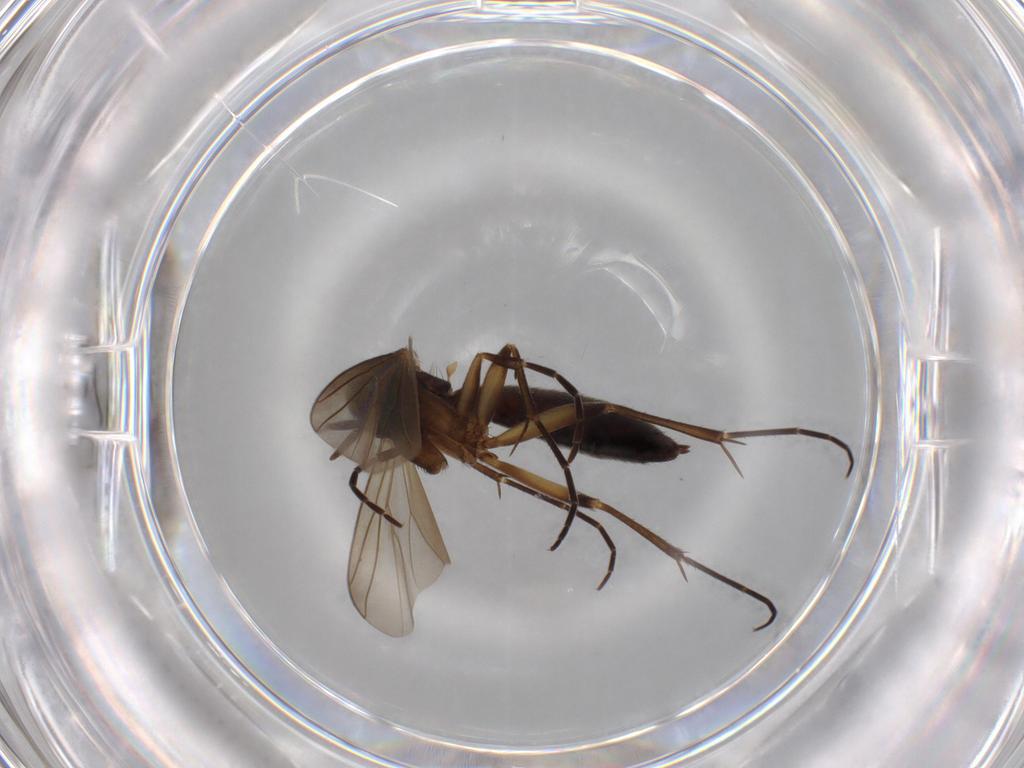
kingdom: Animalia
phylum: Arthropoda
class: Insecta
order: Diptera
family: Mycetophilidae
